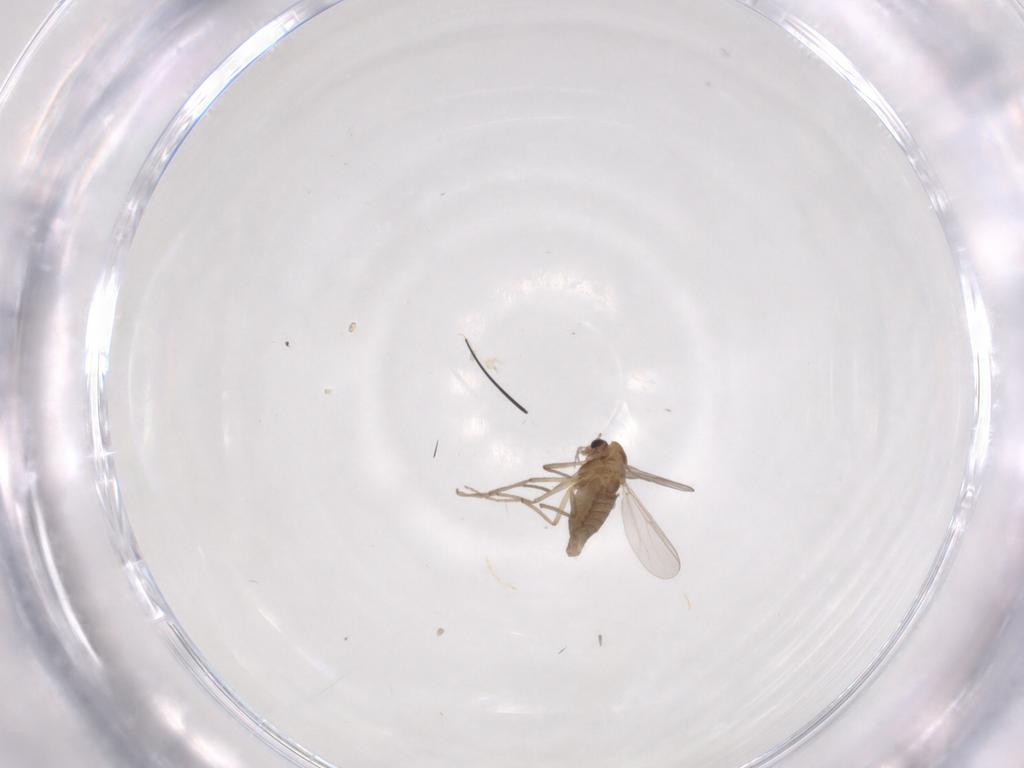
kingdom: Animalia
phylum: Arthropoda
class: Insecta
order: Diptera
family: Chironomidae
